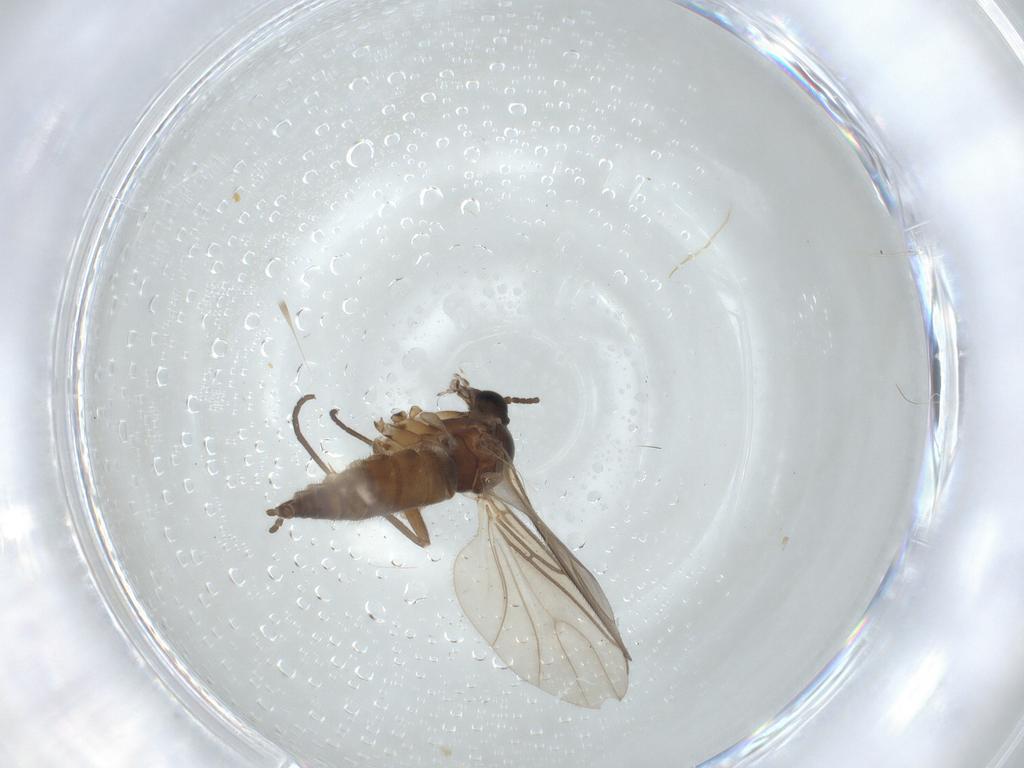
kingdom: Animalia
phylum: Arthropoda
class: Insecta
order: Diptera
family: Sciaridae
